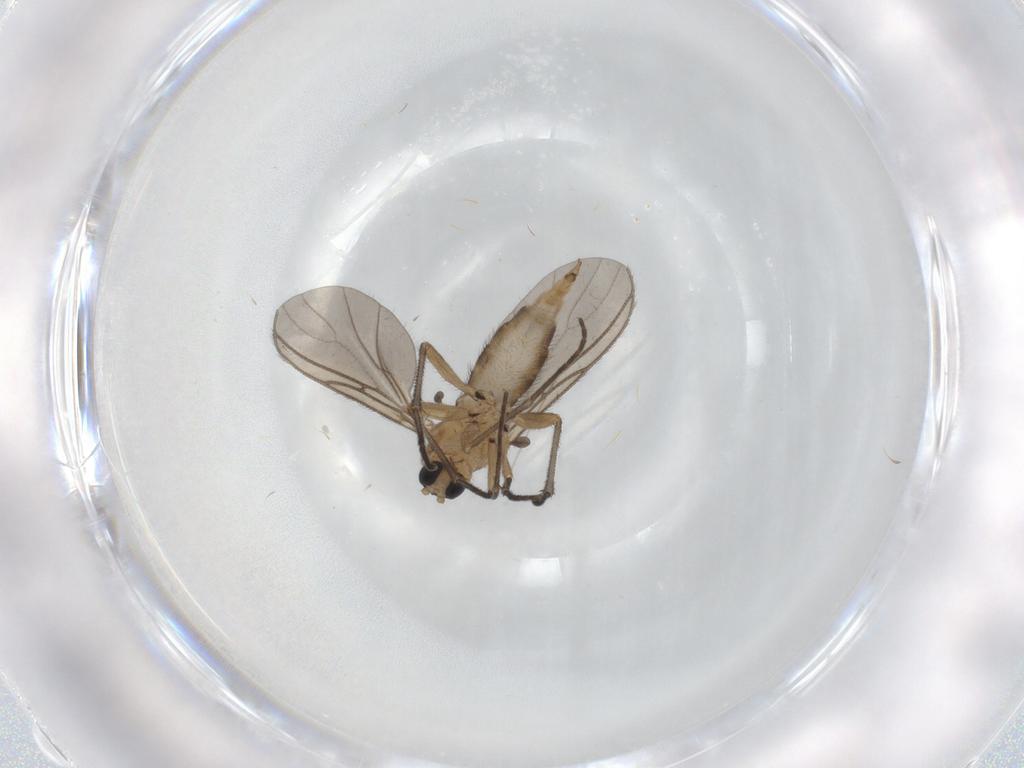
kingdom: Animalia
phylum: Arthropoda
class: Insecta
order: Diptera
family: Sciaridae
